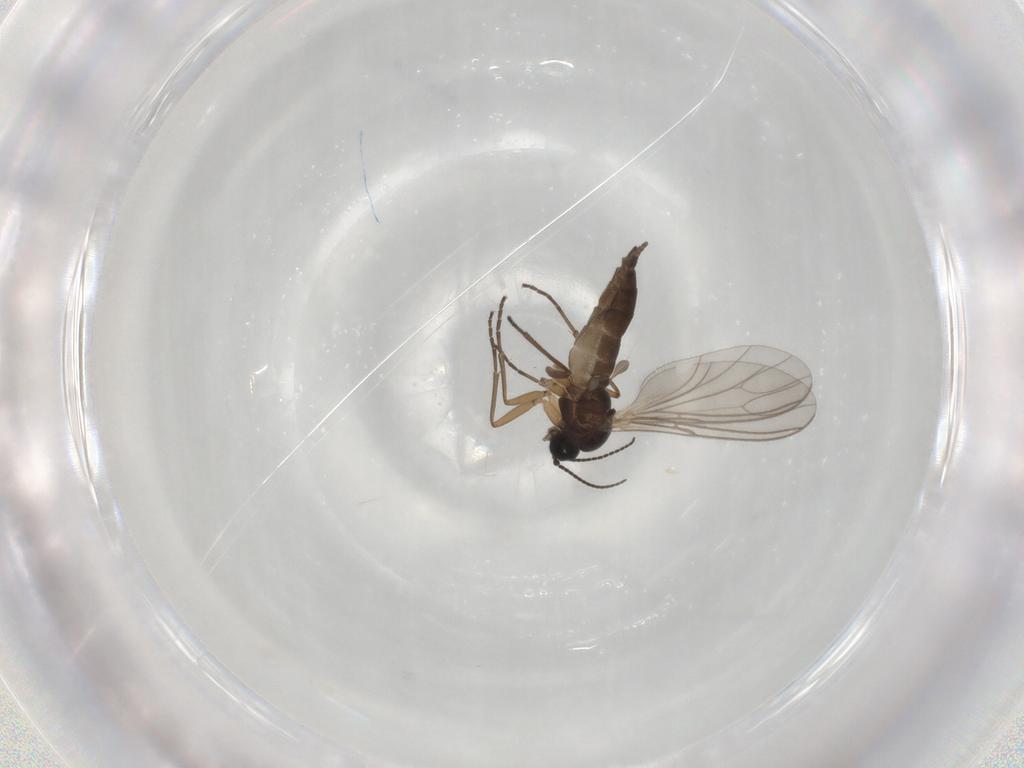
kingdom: Animalia
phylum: Arthropoda
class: Insecta
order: Diptera
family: Sciaridae
